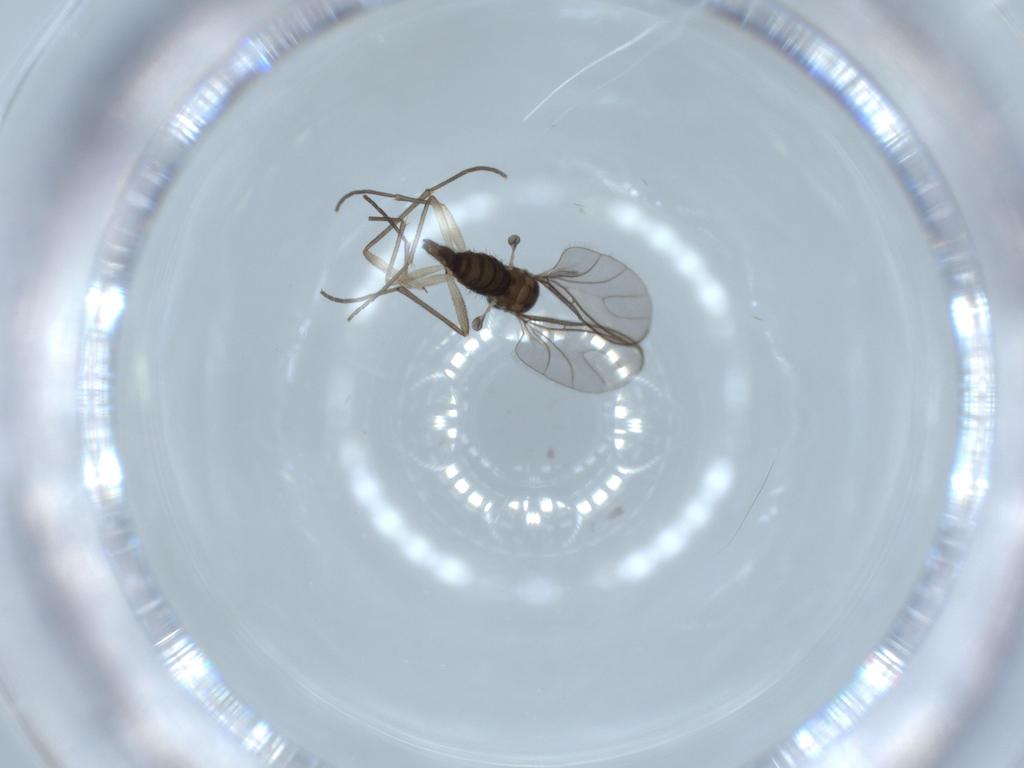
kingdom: Animalia
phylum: Arthropoda
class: Insecta
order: Diptera
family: Sciaridae
